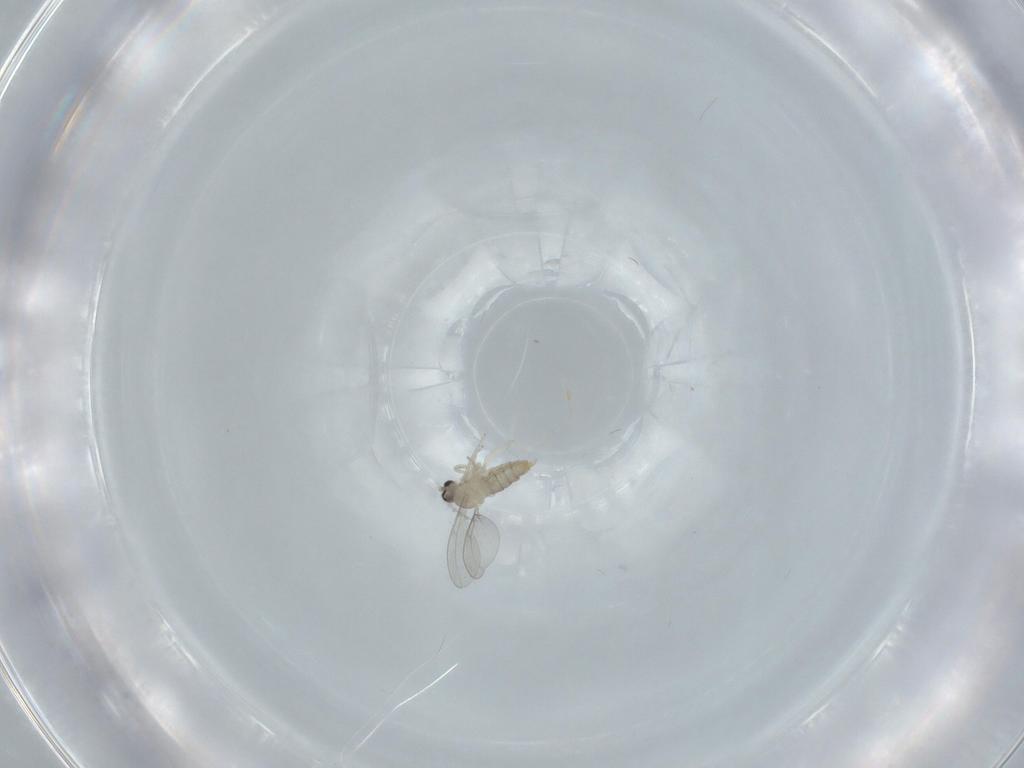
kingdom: Animalia
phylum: Arthropoda
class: Insecta
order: Diptera
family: Cecidomyiidae
